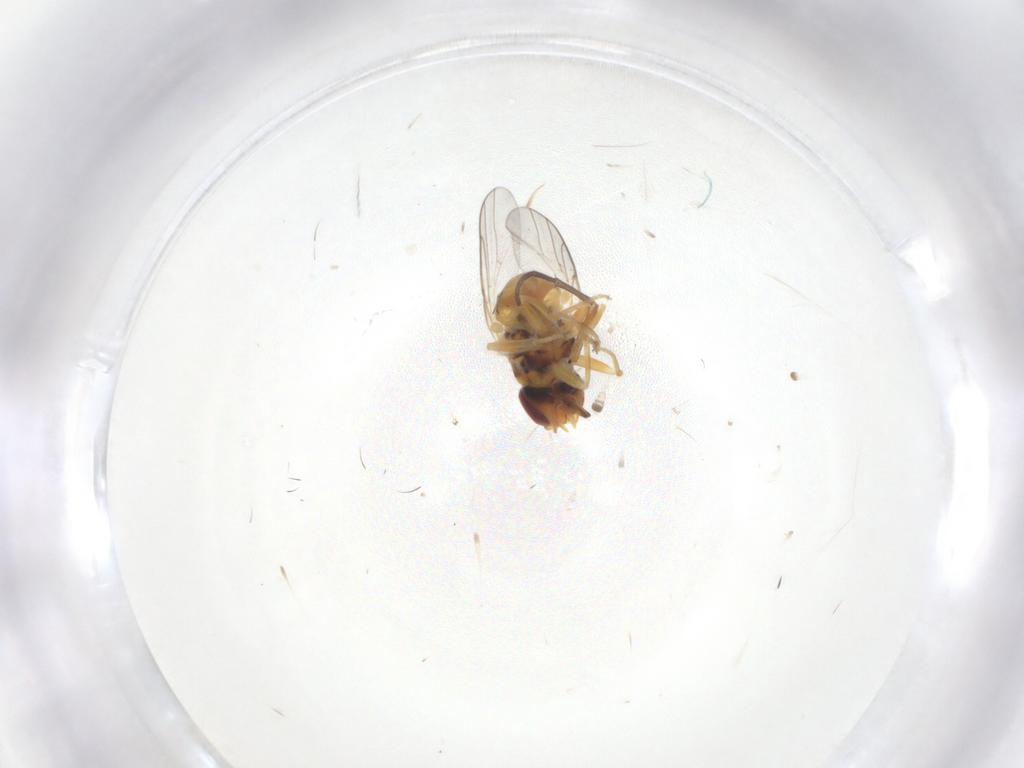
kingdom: Animalia
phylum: Arthropoda
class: Insecta
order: Diptera
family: Chloropidae
